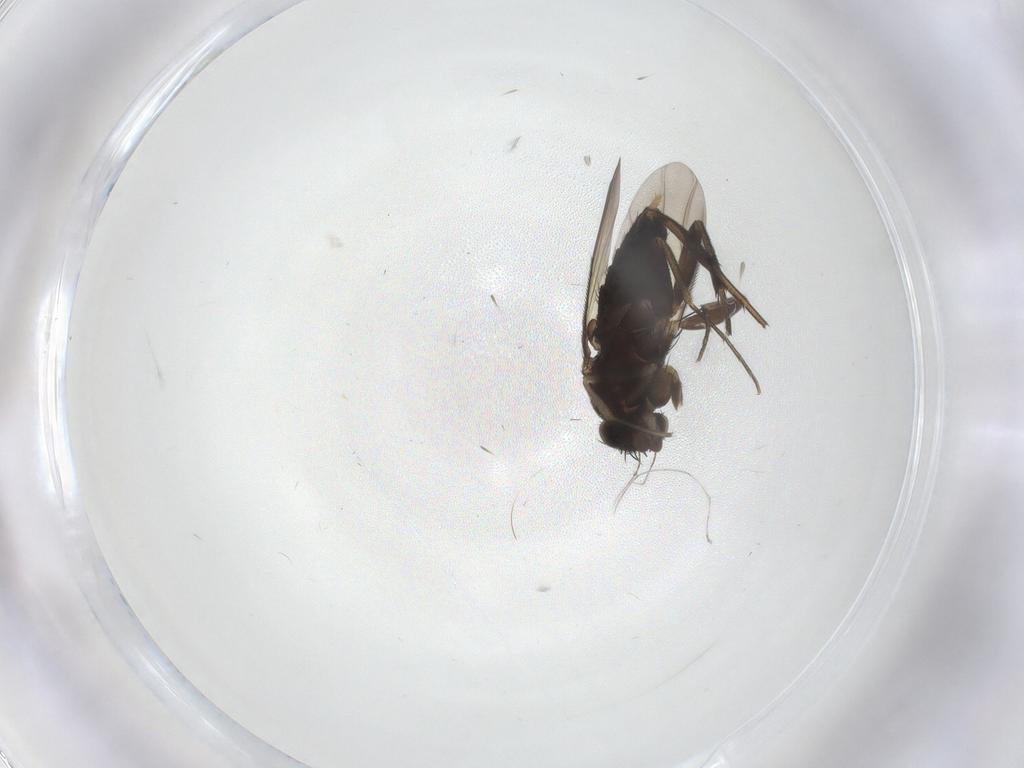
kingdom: Animalia
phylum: Arthropoda
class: Insecta
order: Diptera
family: Phoridae
